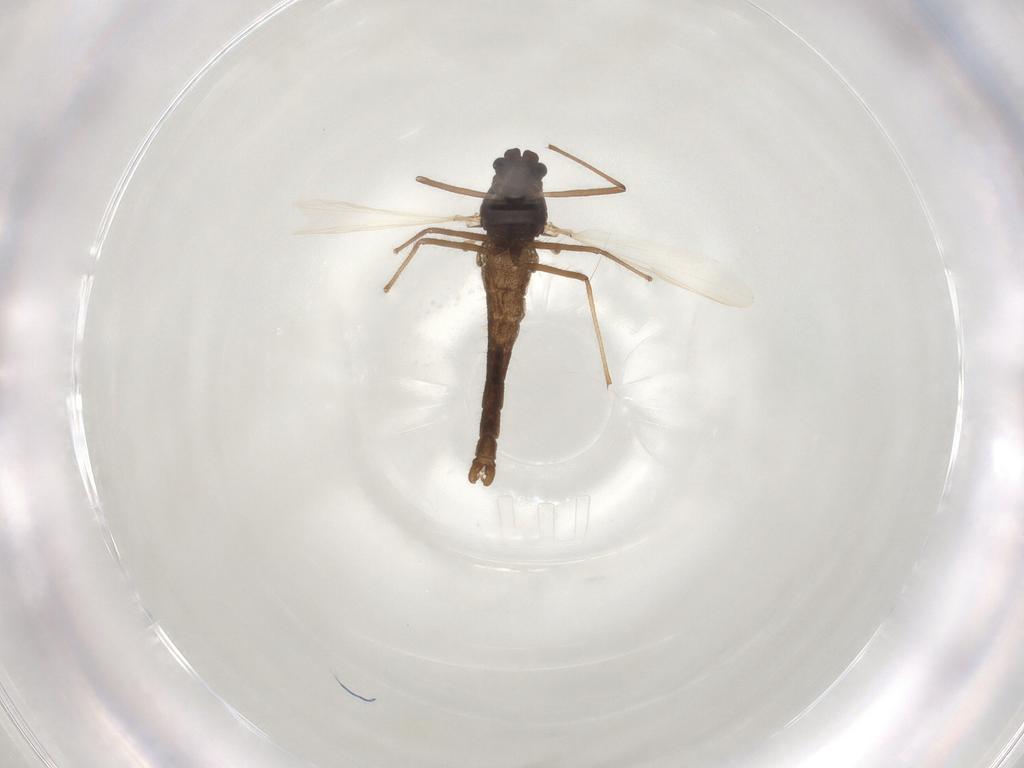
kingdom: Animalia
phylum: Arthropoda
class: Insecta
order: Diptera
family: Chironomidae
